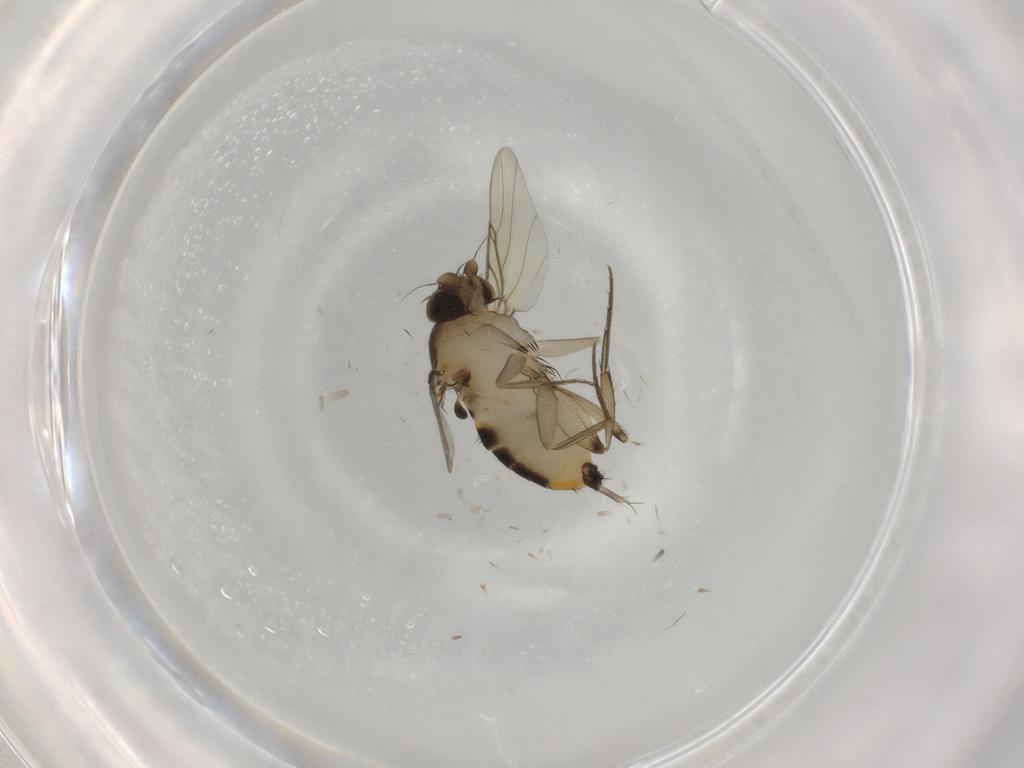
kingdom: Animalia
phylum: Arthropoda
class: Insecta
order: Diptera
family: Phoridae
